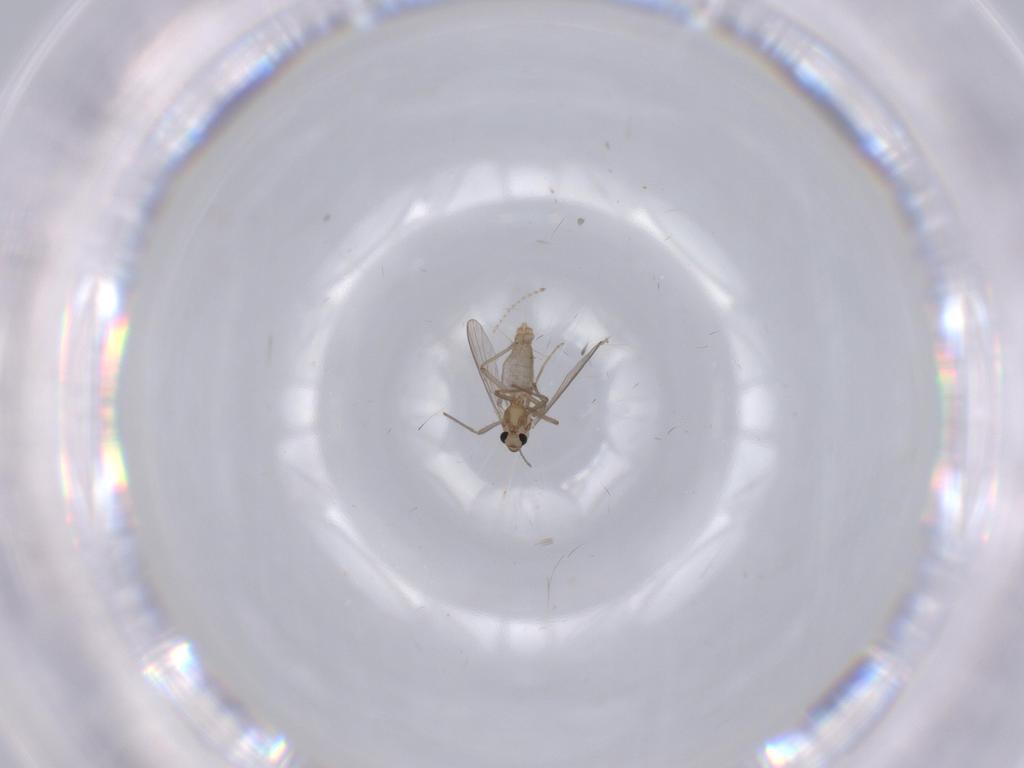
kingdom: Animalia
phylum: Arthropoda
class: Insecta
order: Diptera
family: Chironomidae
